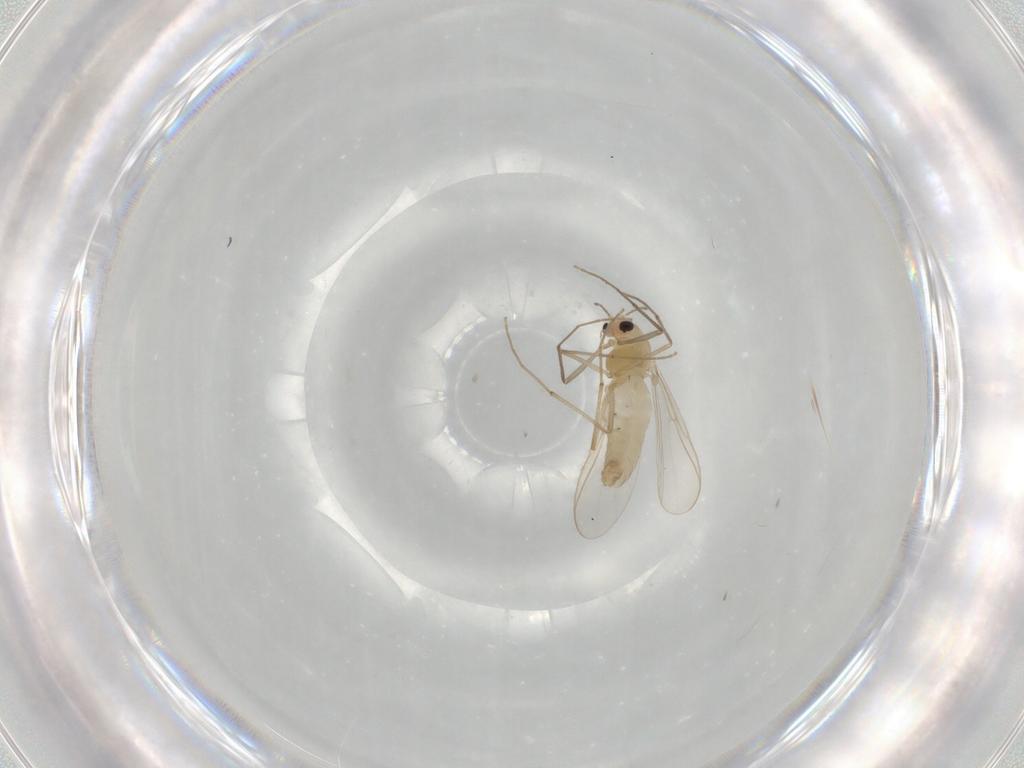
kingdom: Animalia
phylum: Arthropoda
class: Insecta
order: Diptera
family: Chironomidae
